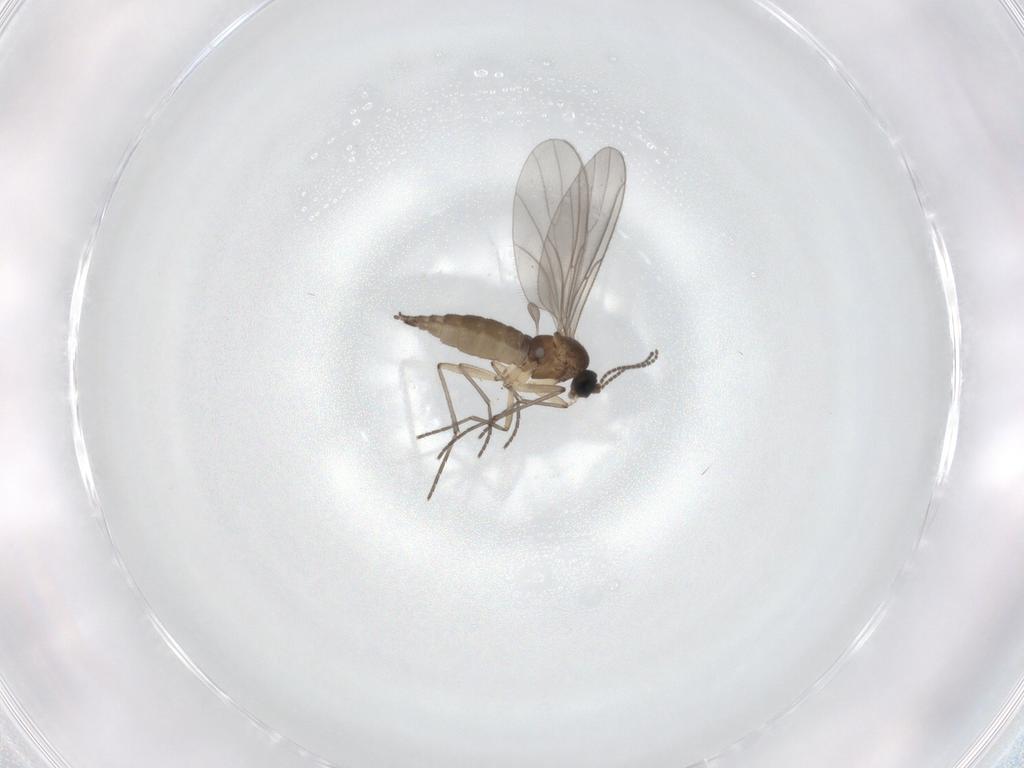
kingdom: Animalia
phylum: Arthropoda
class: Insecta
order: Diptera
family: Sciaridae
